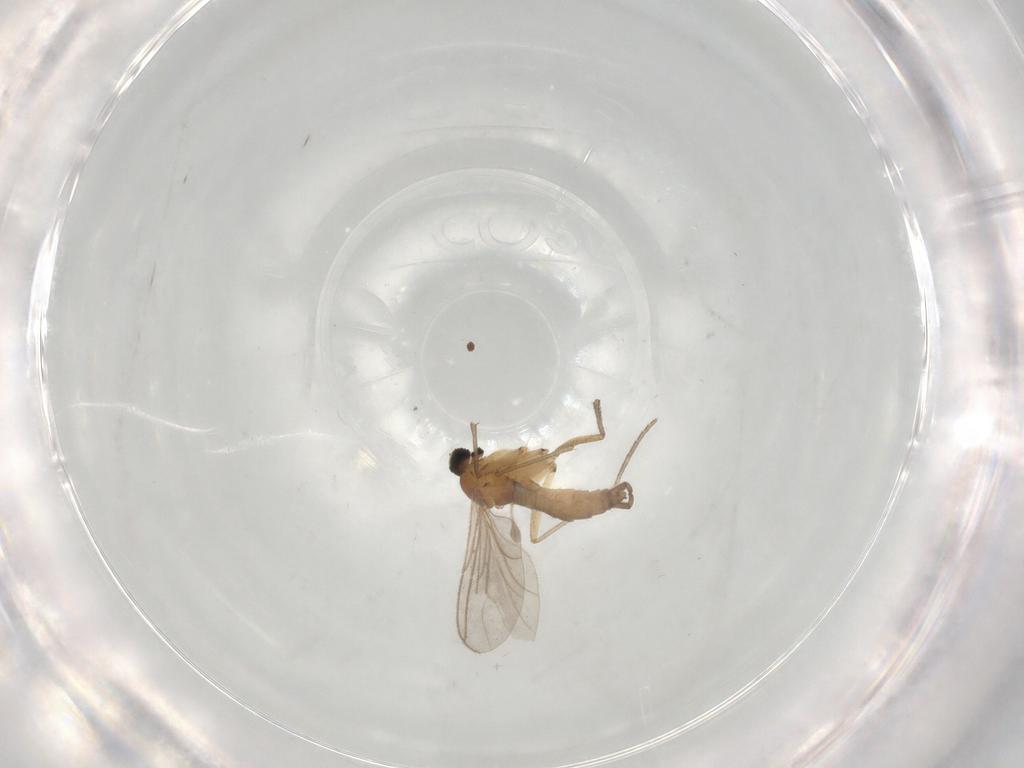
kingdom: Animalia
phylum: Arthropoda
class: Insecta
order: Diptera
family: Sciaridae
